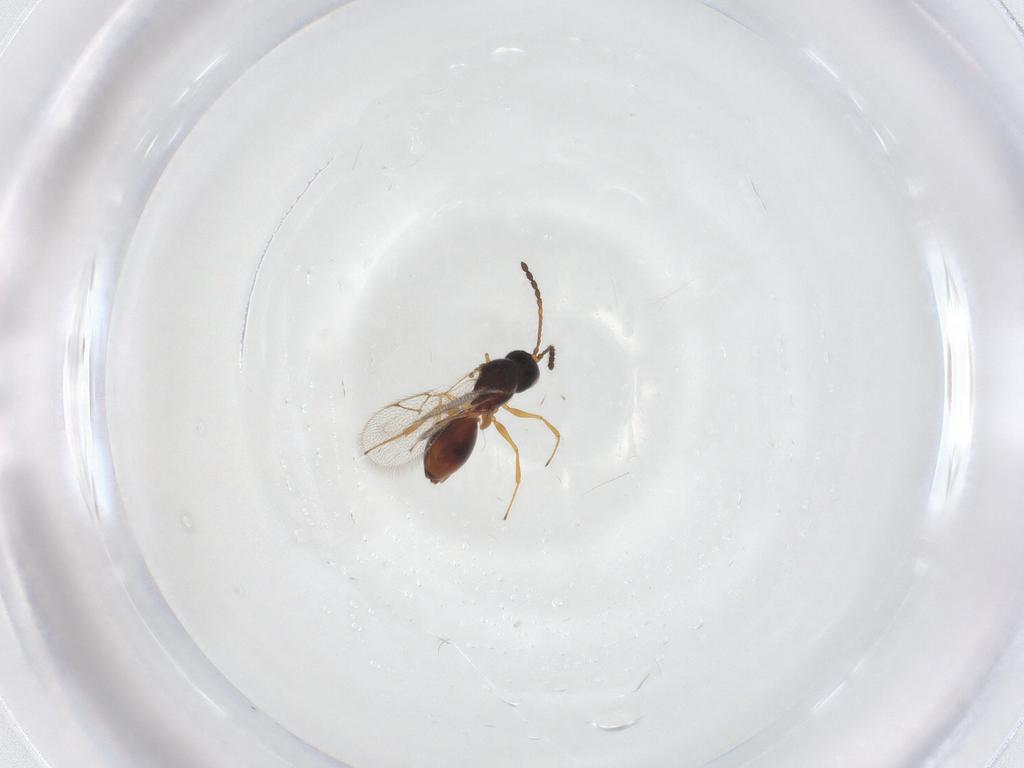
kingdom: Animalia
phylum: Arthropoda
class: Insecta
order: Hymenoptera
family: Figitidae
